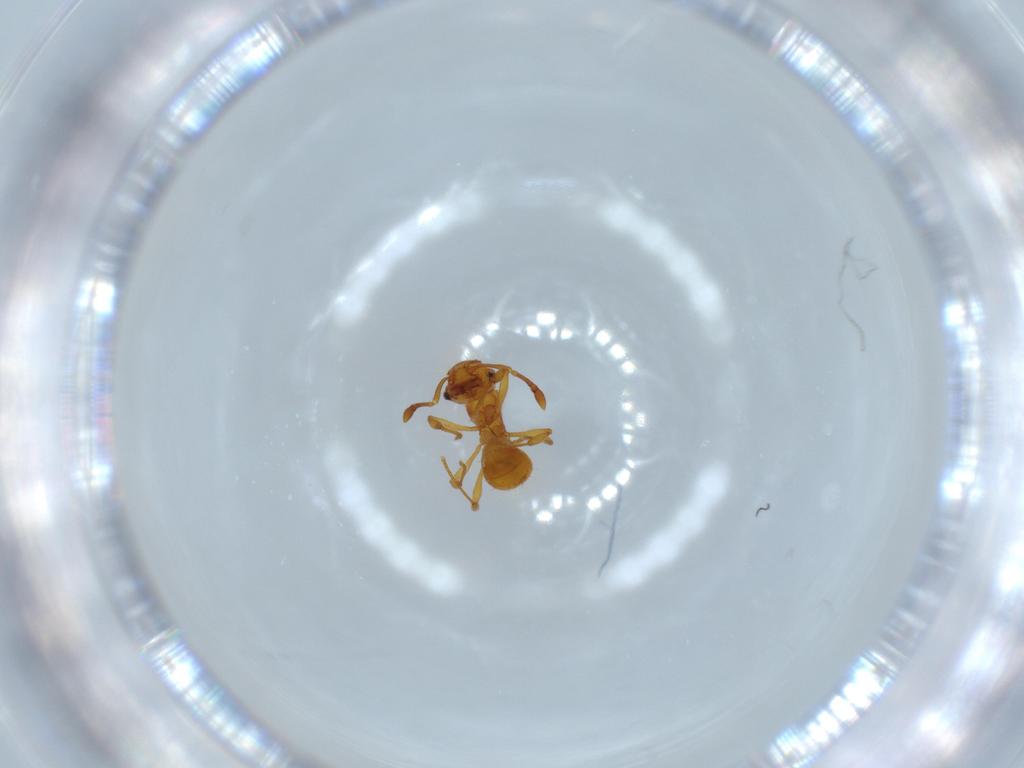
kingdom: Animalia
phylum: Arthropoda
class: Insecta
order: Hymenoptera
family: Formicidae
